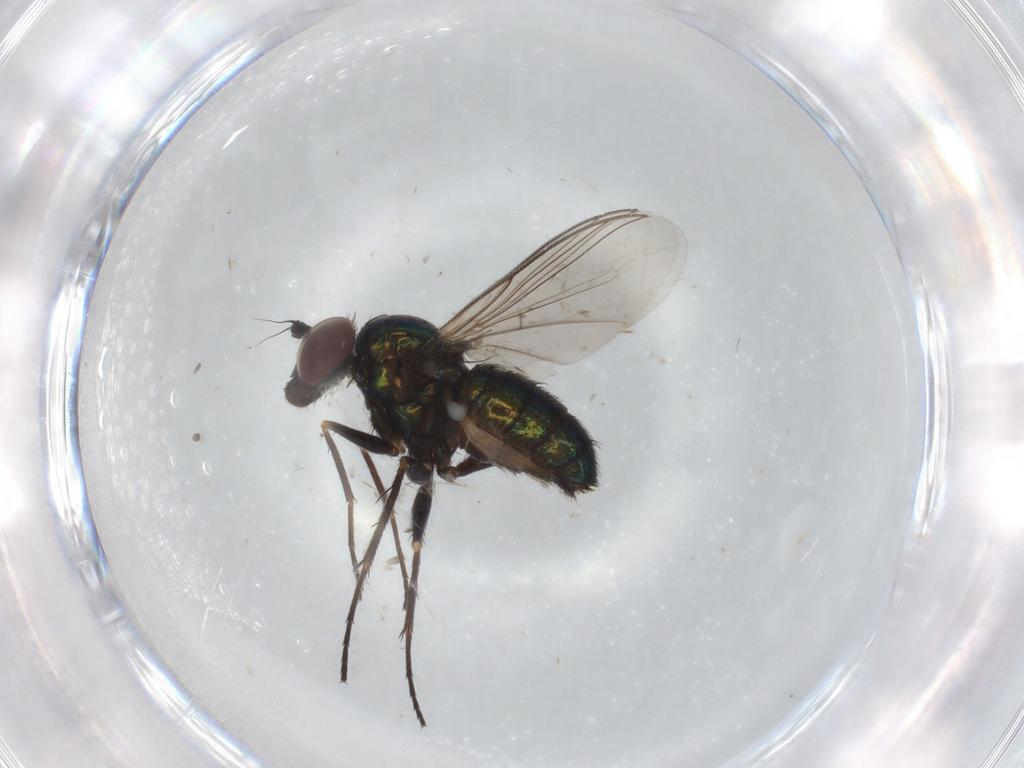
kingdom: Animalia
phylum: Arthropoda
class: Insecta
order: Diptera
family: Dolichopodidae
